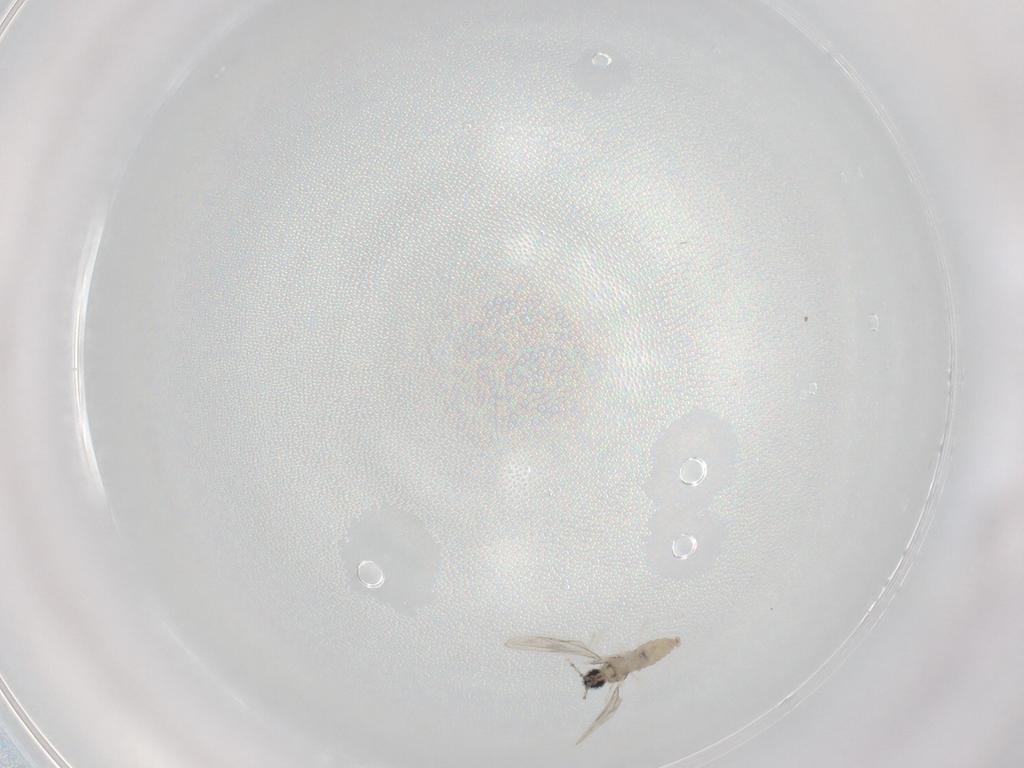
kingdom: Animalia
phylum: Arthropoda
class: Insecta
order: Diptera
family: Cecidomyiidae
